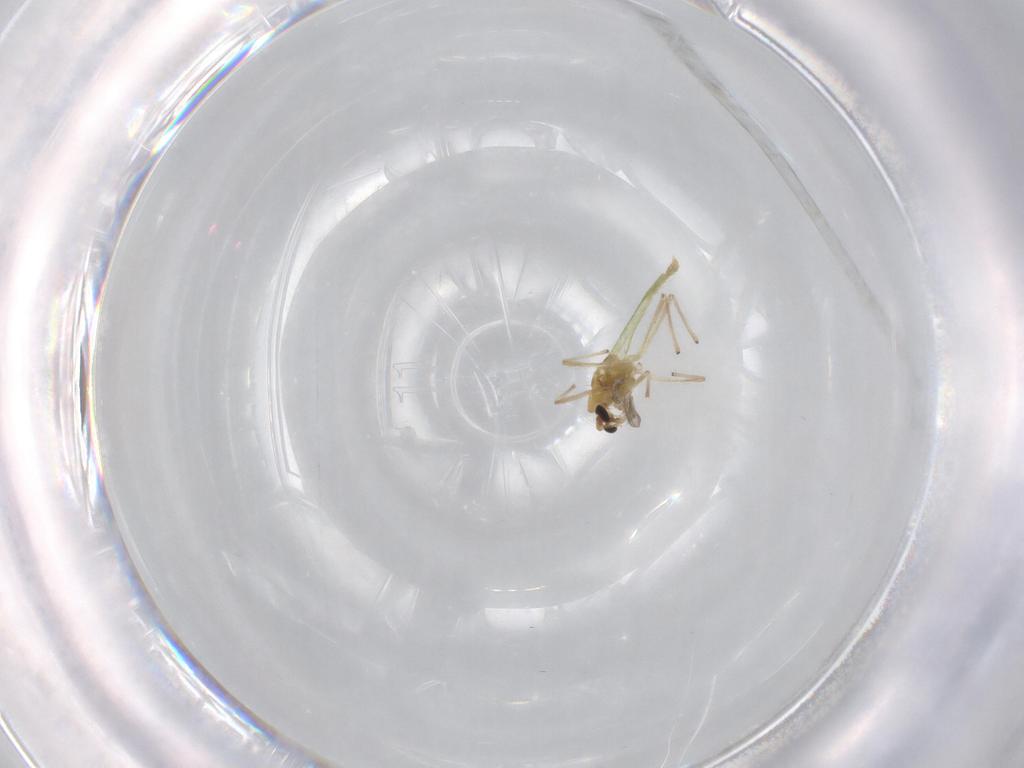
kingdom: Animalia
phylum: Arthropoda
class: Insecta
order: Diptera
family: Chironomidae
